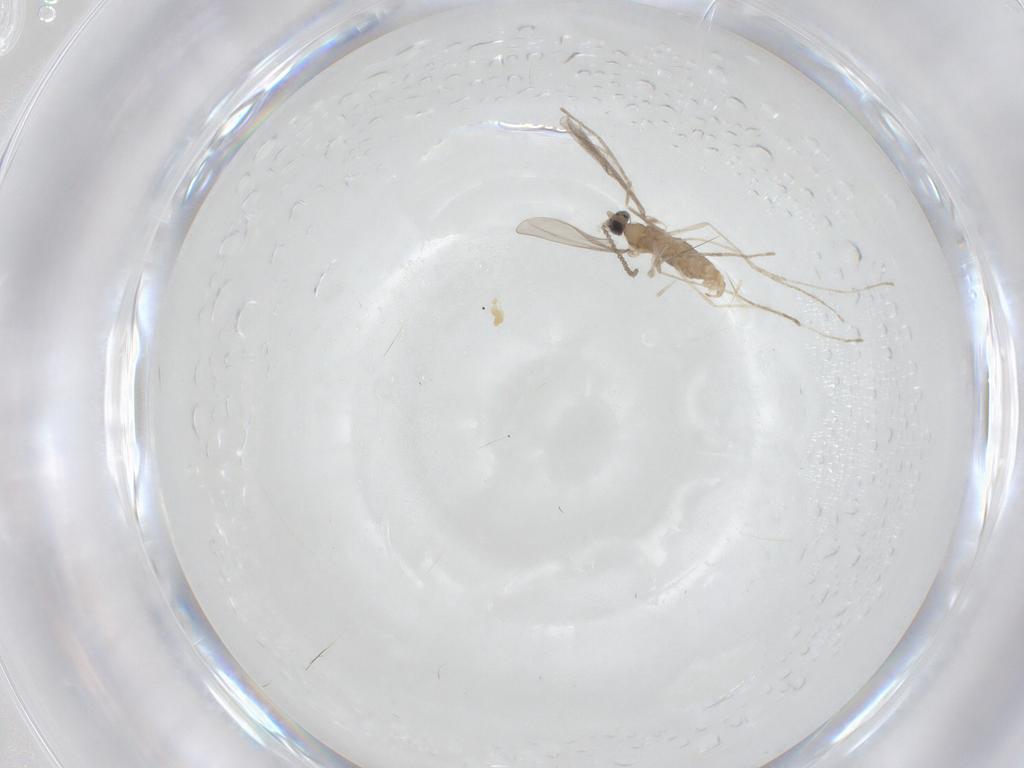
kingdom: Animalia
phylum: Arthropoda
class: Insecta
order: Diptera
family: Cecidomyiidae
